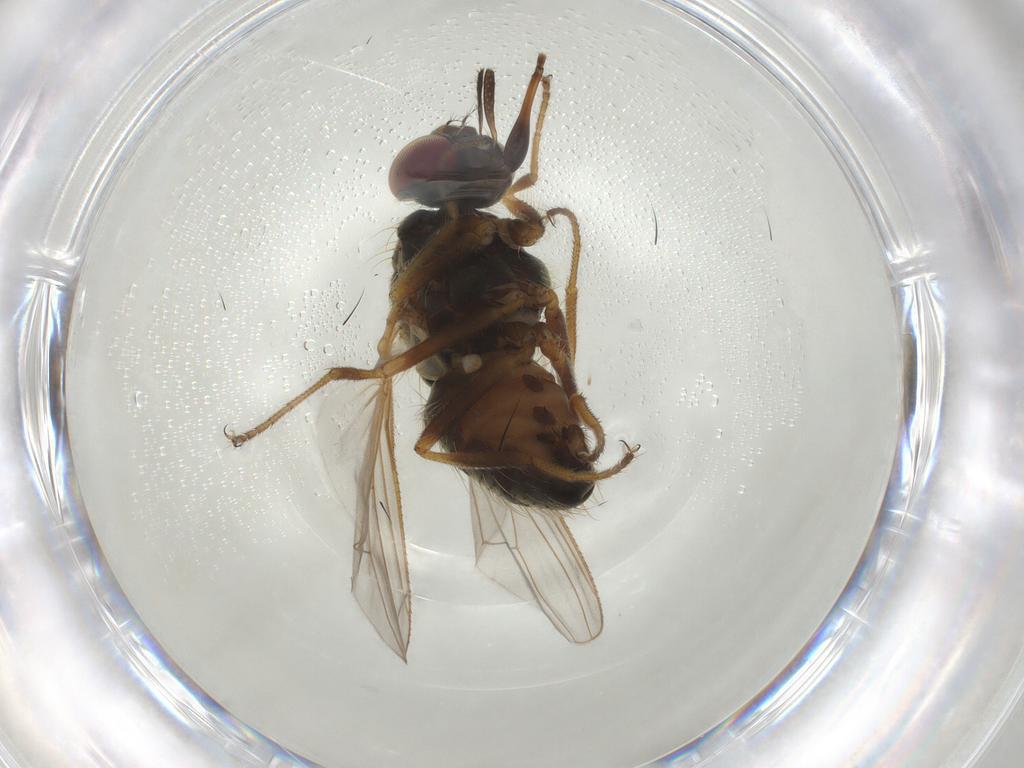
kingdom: Animalia
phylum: Arthropoda
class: Insecta
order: Diptera
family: Muscidae
